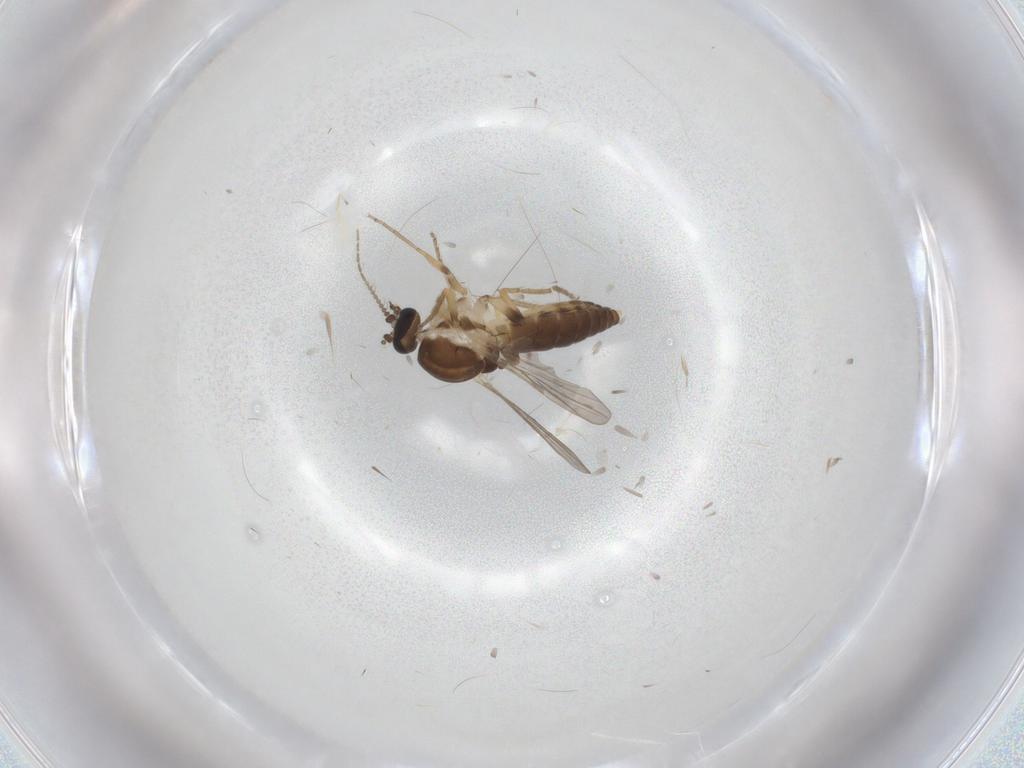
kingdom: Animalia
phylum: Arthropoda
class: Insecta
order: Diptera
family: Ceratopogonidae
